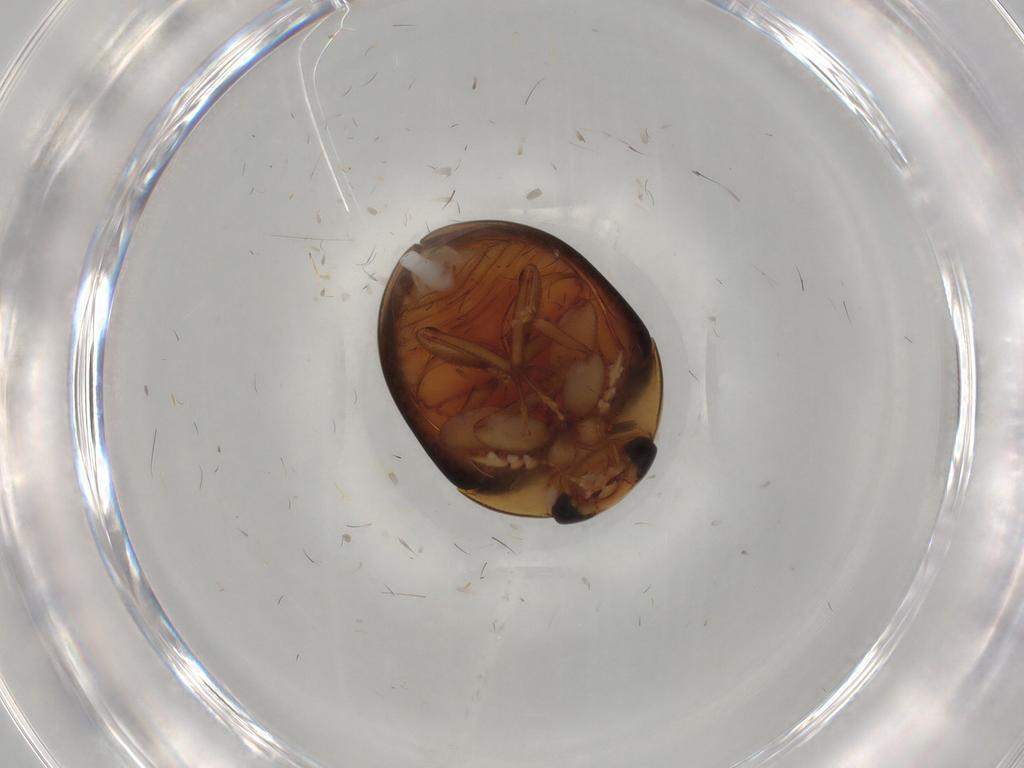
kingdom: Animalia
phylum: Arthropoda
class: Insecta
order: Coleoptera
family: Phalacridae
